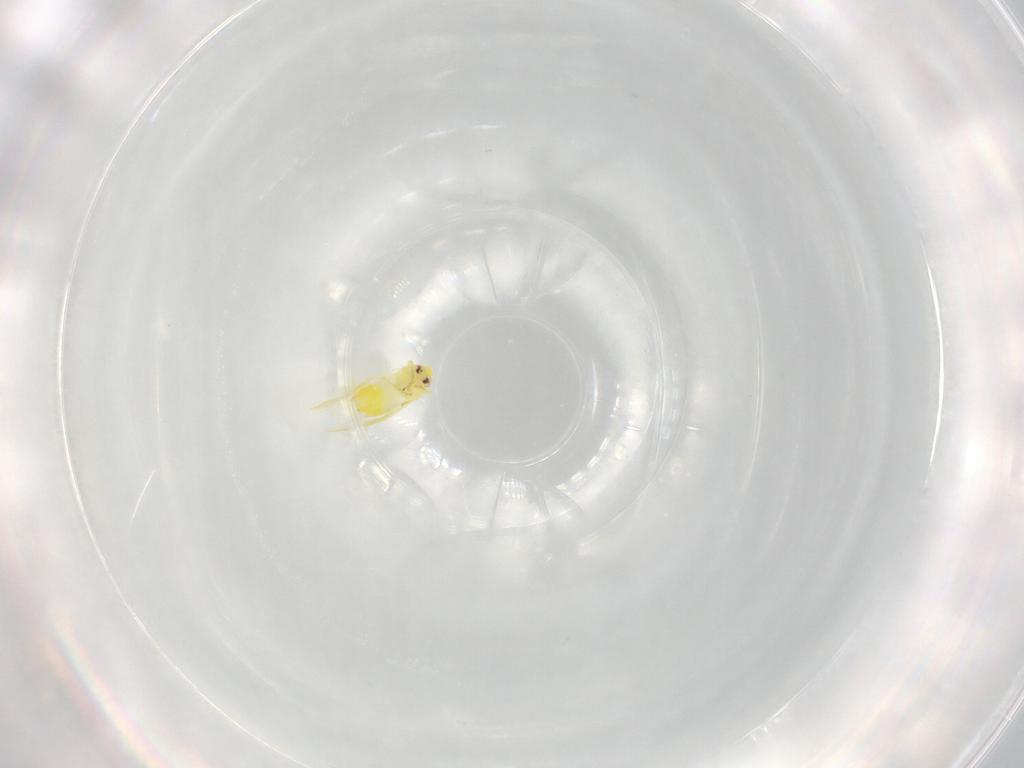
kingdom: Animalia
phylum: Arthropoda
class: Insecta
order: Hemiptera
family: Aleyrodidae
